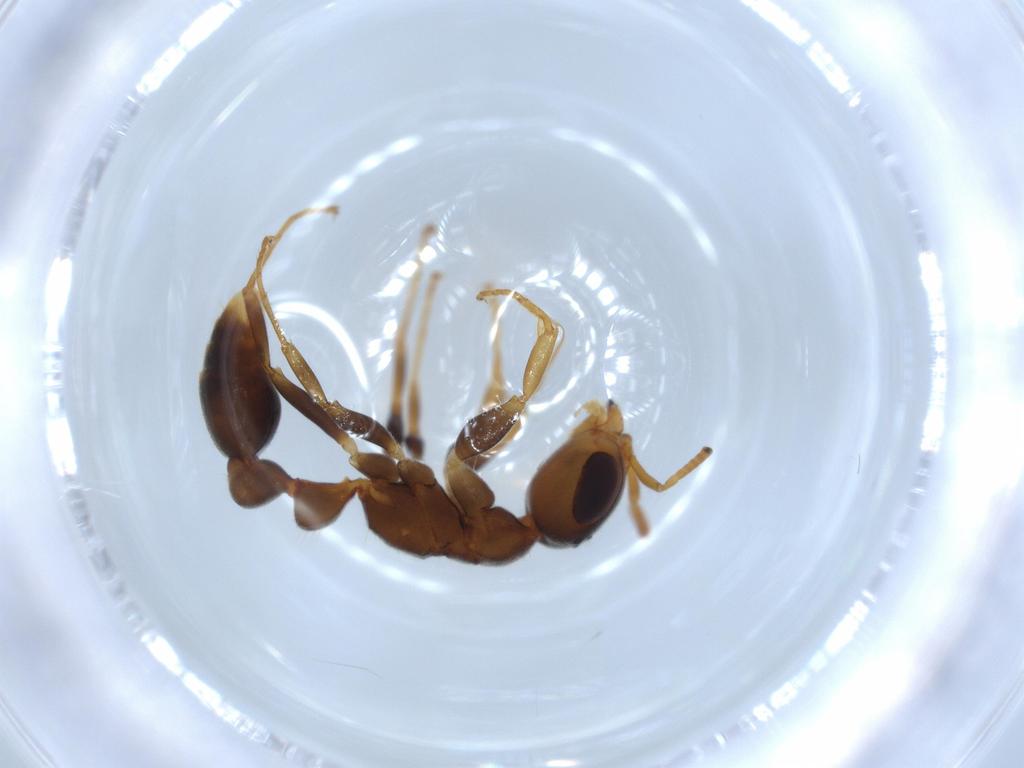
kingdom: Animalia
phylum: Arthropoda
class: Insecta
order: Hymenoptera
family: Formicidae
